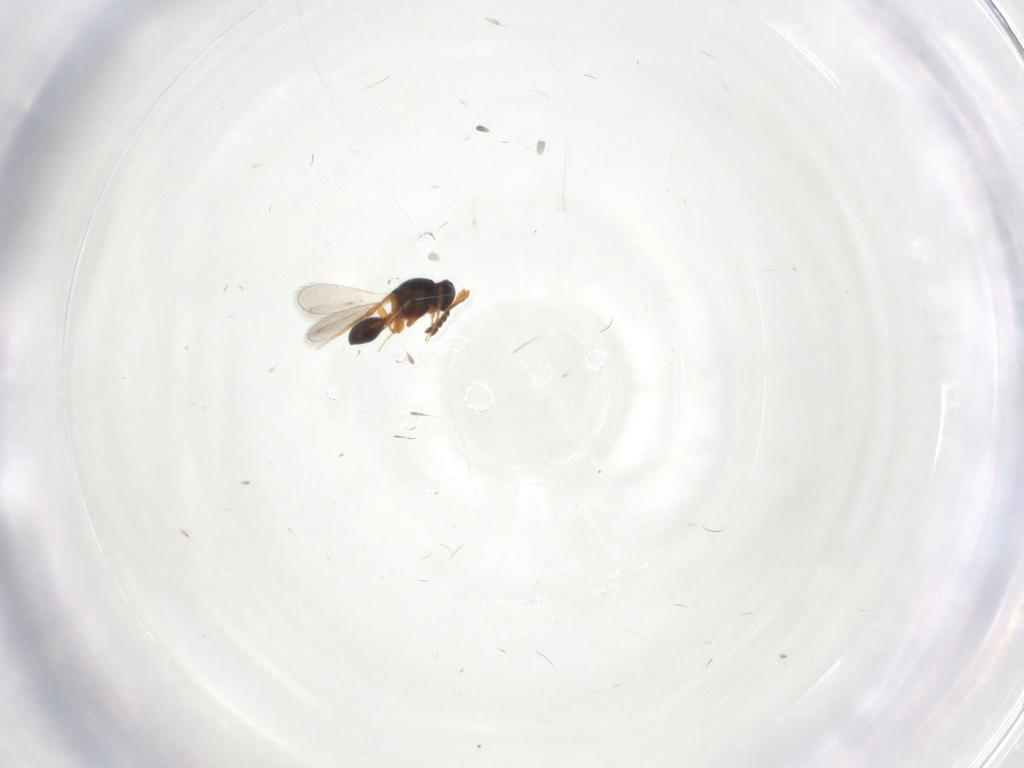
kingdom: Animalia
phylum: Arthropoda
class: Insecta
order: Hymenoptera
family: Platygastridae
